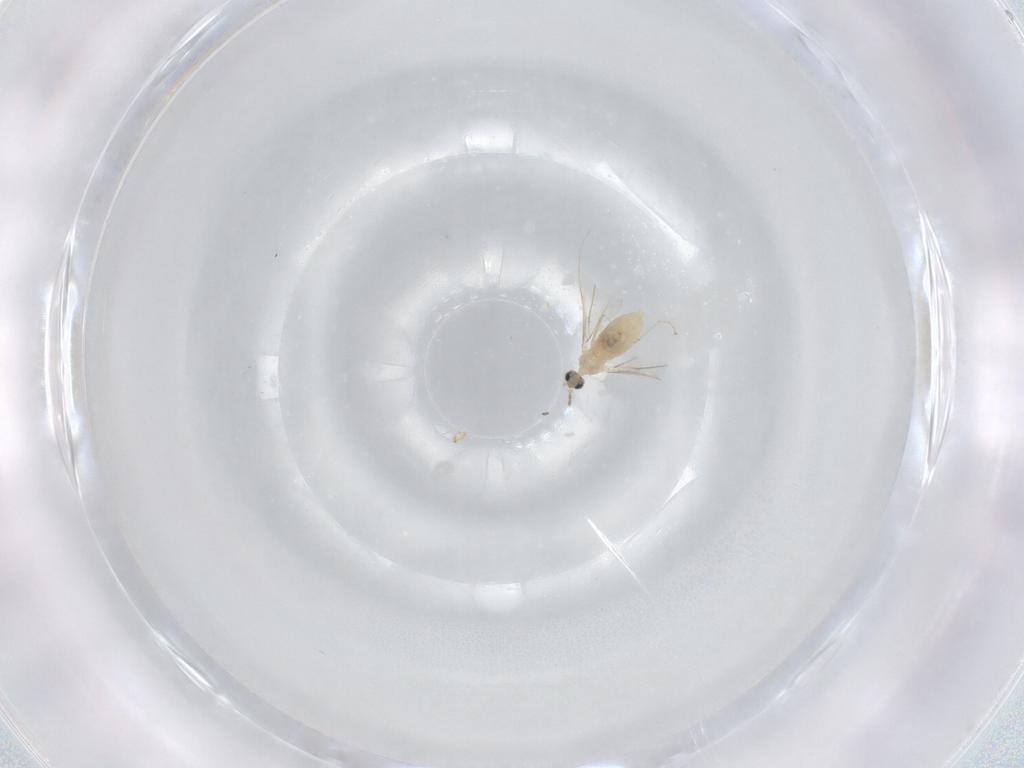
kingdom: Animalia
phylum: Arthropoda
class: Insecta
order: Diptera
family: Cecidomyiidae
